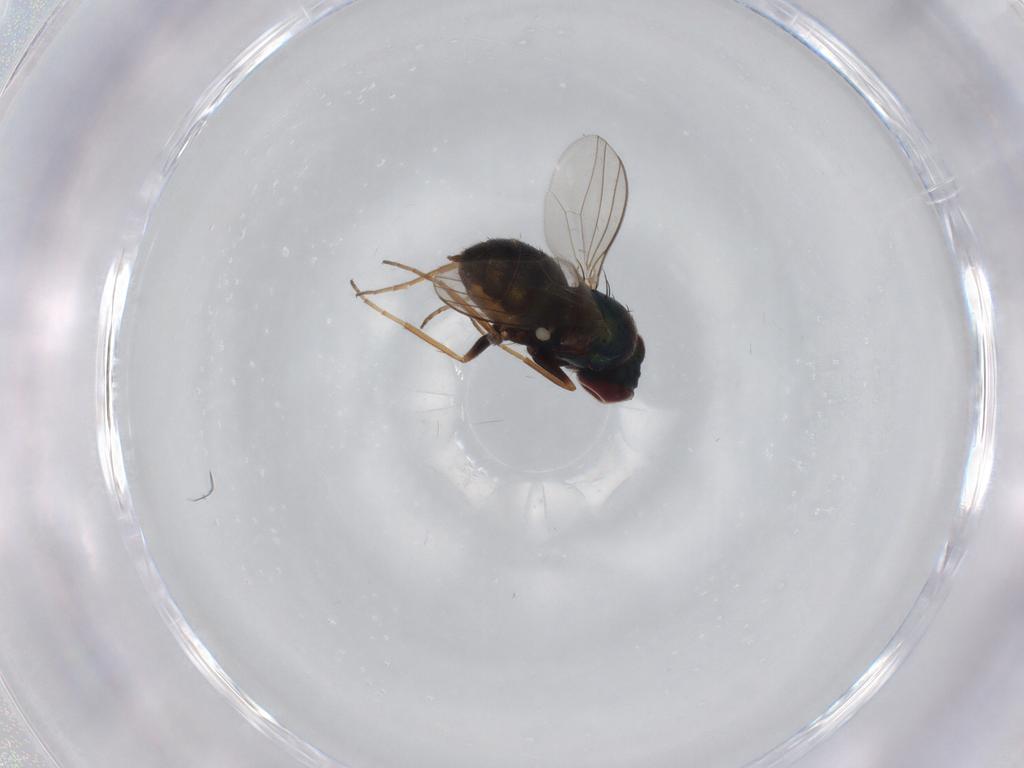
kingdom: Animalia
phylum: Arthropoda
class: Insecta
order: Diptera
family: Dolichopodidae
